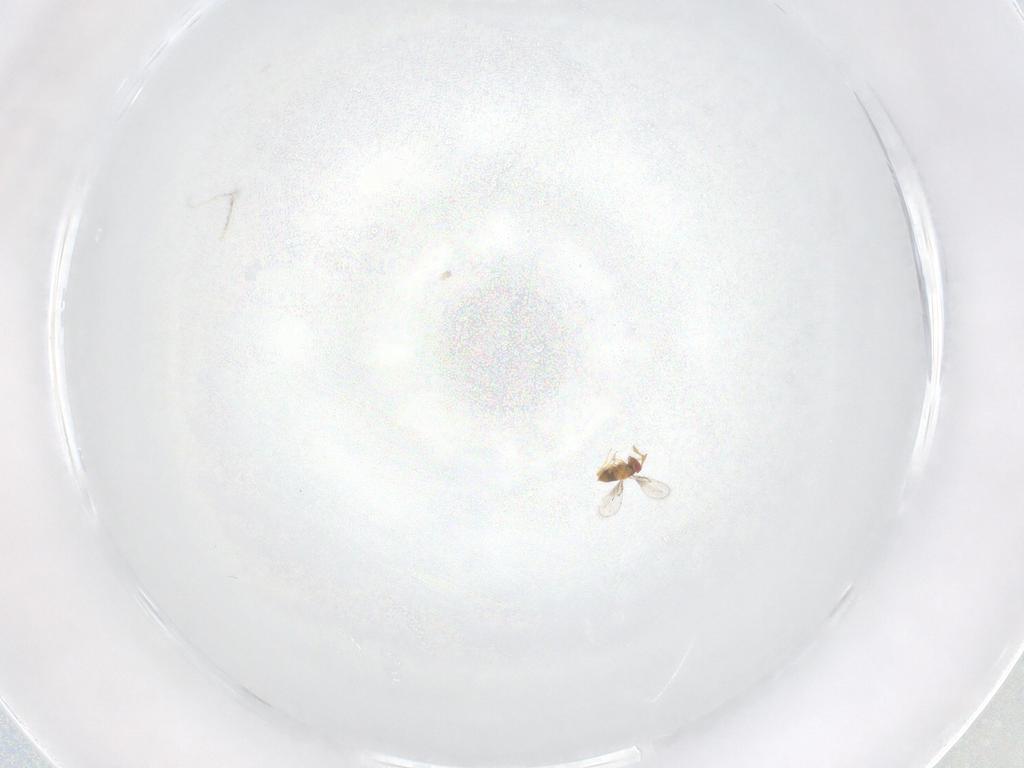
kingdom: Animalia
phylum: Arthropoda
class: Insecta
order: Hymenoptera
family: Trichogrammatidae
